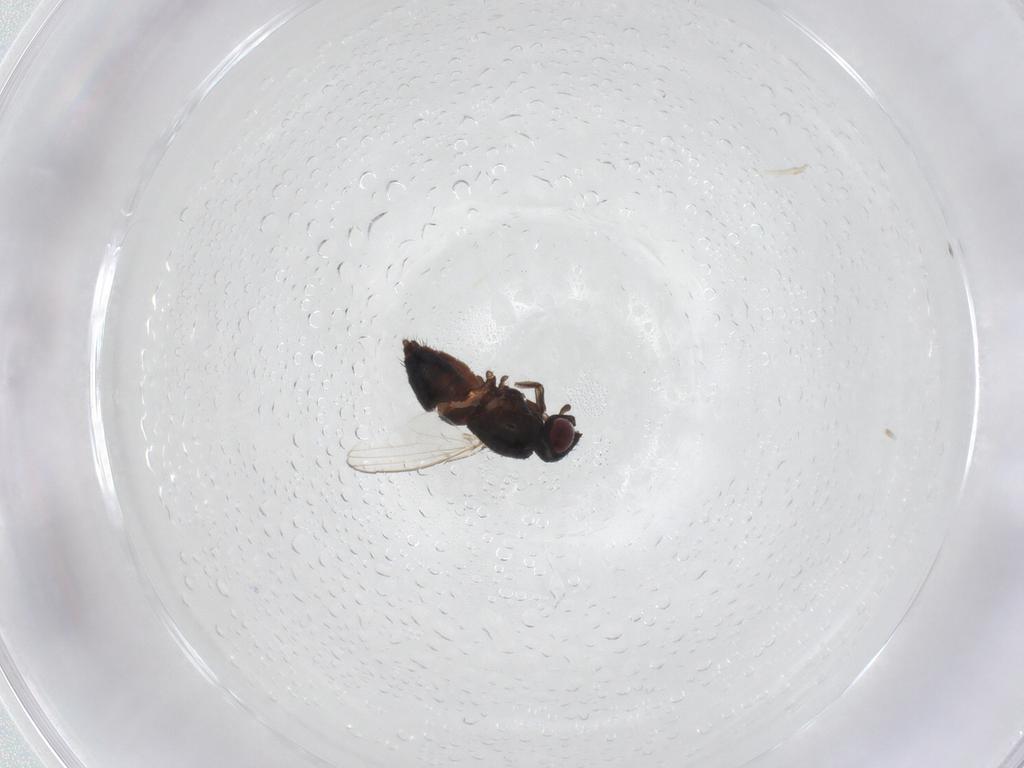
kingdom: Animalia
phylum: Arthropoda
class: Insecta
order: Diptera
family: Milichiidae
